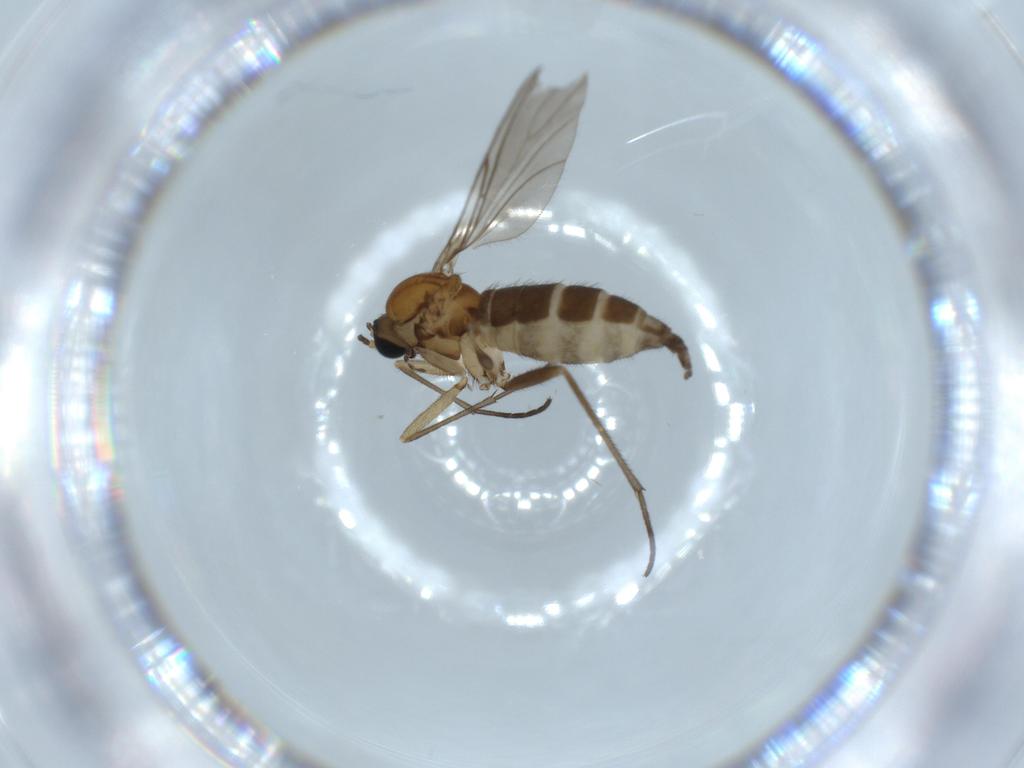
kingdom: Animalia
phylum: Arthropoda
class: Insecta
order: Diptera
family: Sciaridae
